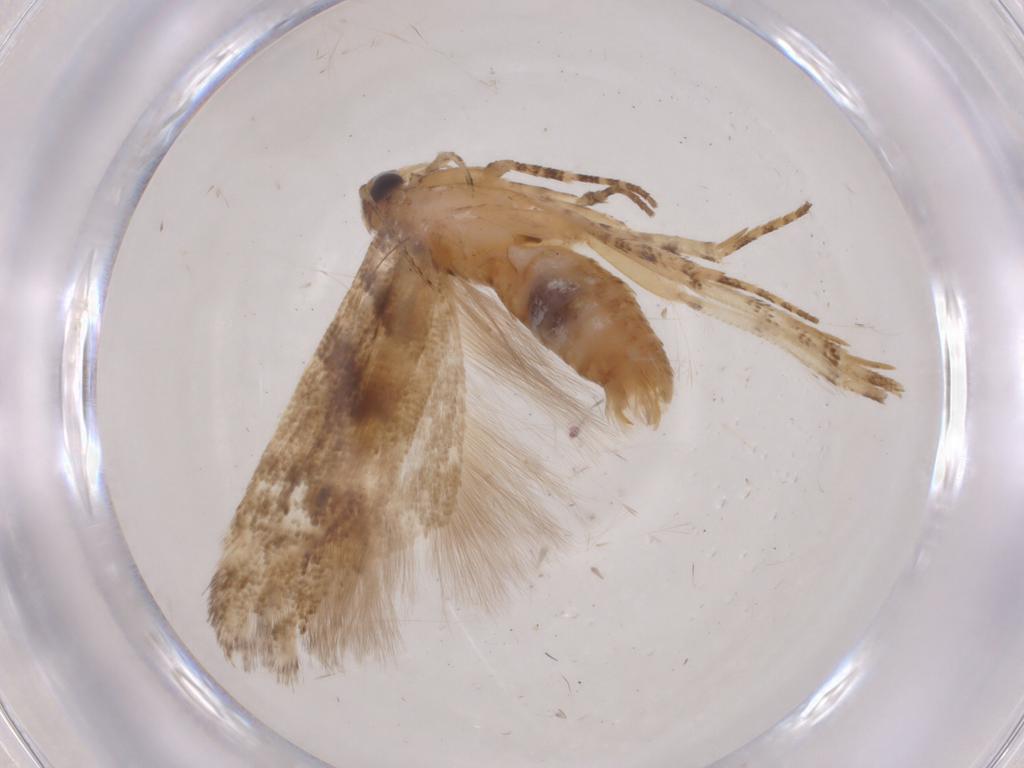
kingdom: Animalia
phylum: Arthropoda
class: Insecta
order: Lepidoptera
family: Gelechiidae
